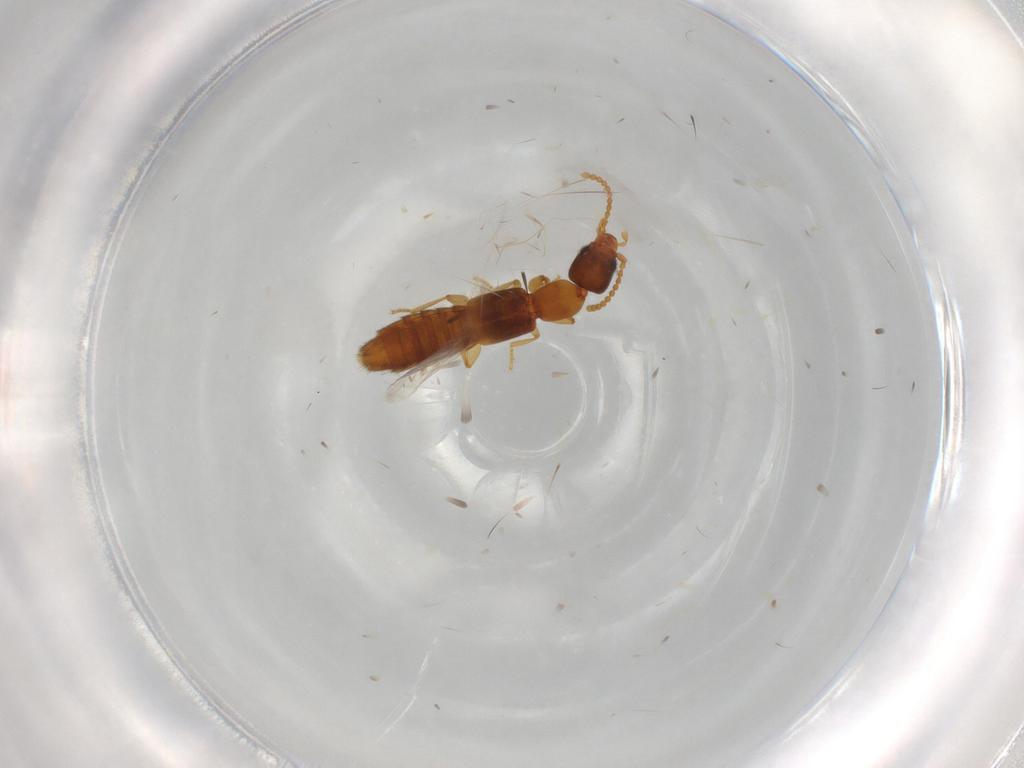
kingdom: Animalia
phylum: Arthropoda
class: Insecta
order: Coleoptera
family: Staphylinidae
